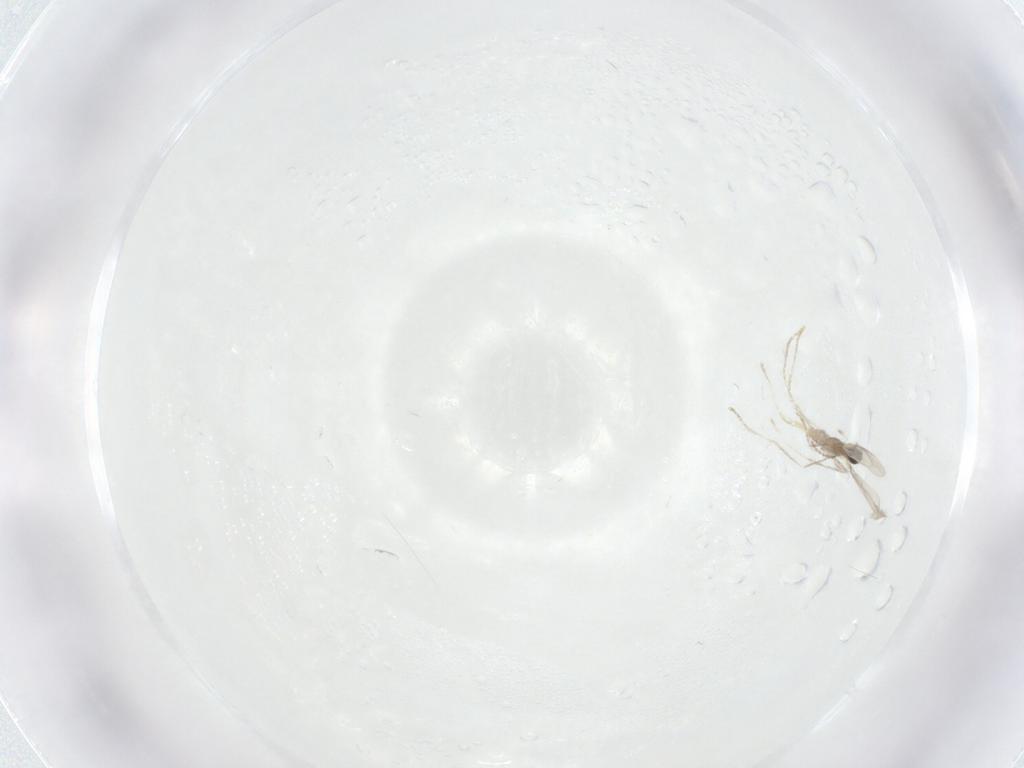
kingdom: Animalia
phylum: Arthropoda
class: Insecta
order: Diptera
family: Cecidomyiidae
